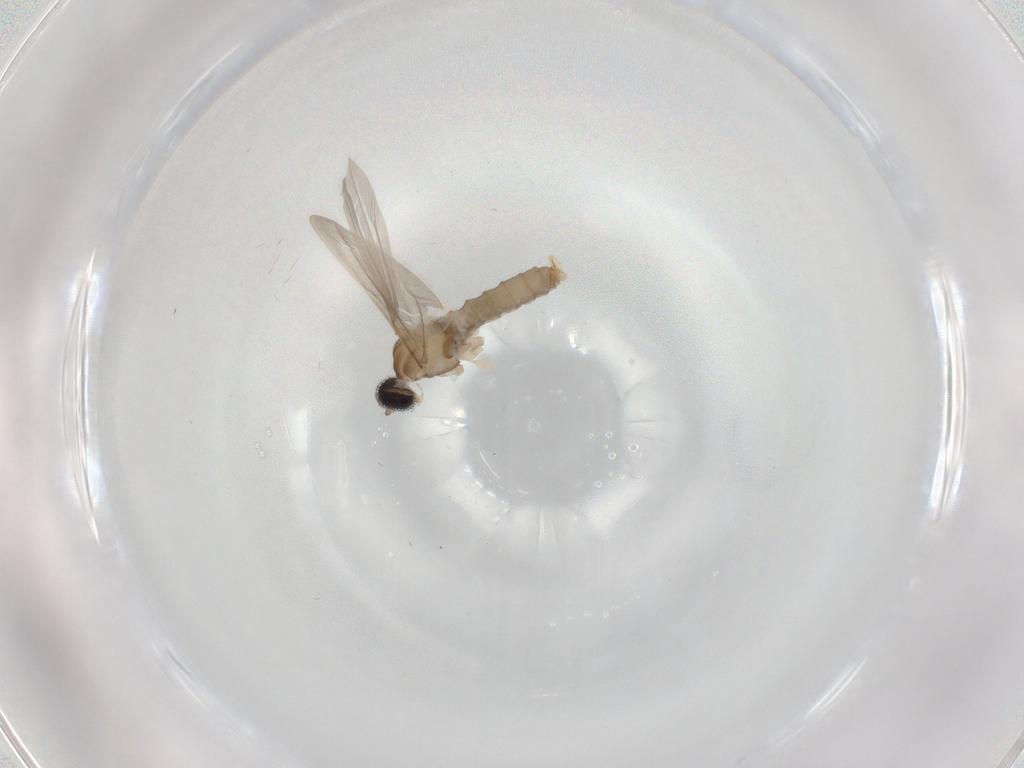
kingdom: Animalia
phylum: Arthropoda
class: Insecta
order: Diptera
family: Cecidomyiidae
